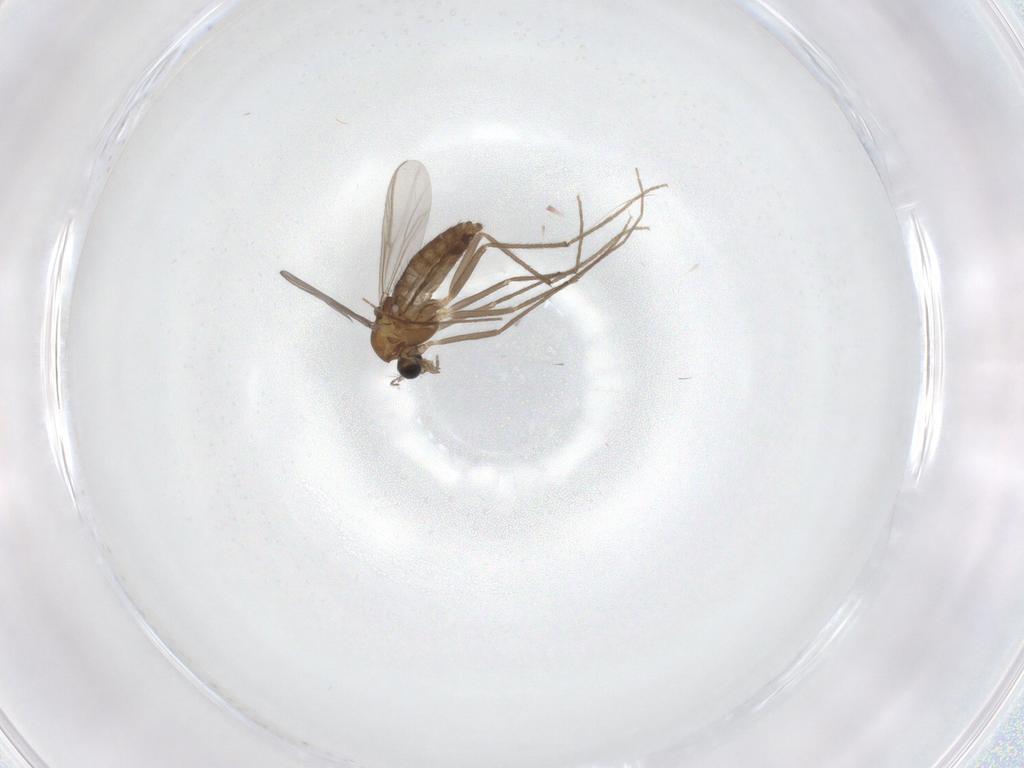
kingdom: Animalia
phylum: Arthropoda
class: Insecta
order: Diptera
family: Chironomidae
